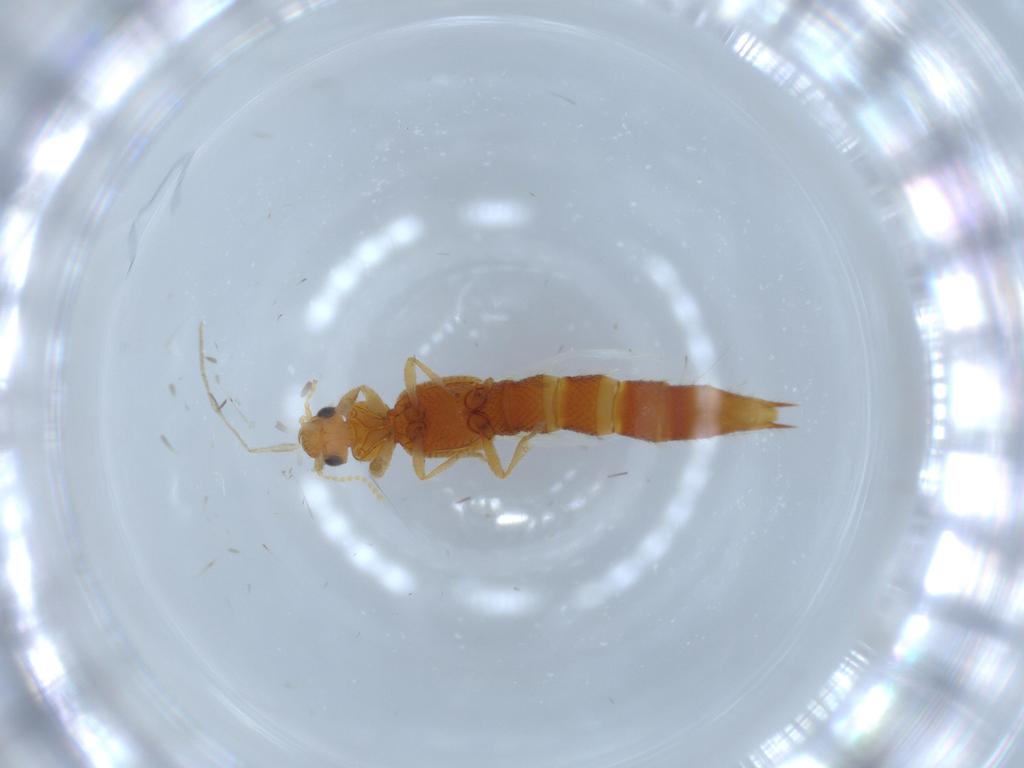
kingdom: Animalia
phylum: Arthropoda
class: Insecta
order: Coleoptera
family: Staphylinidae
